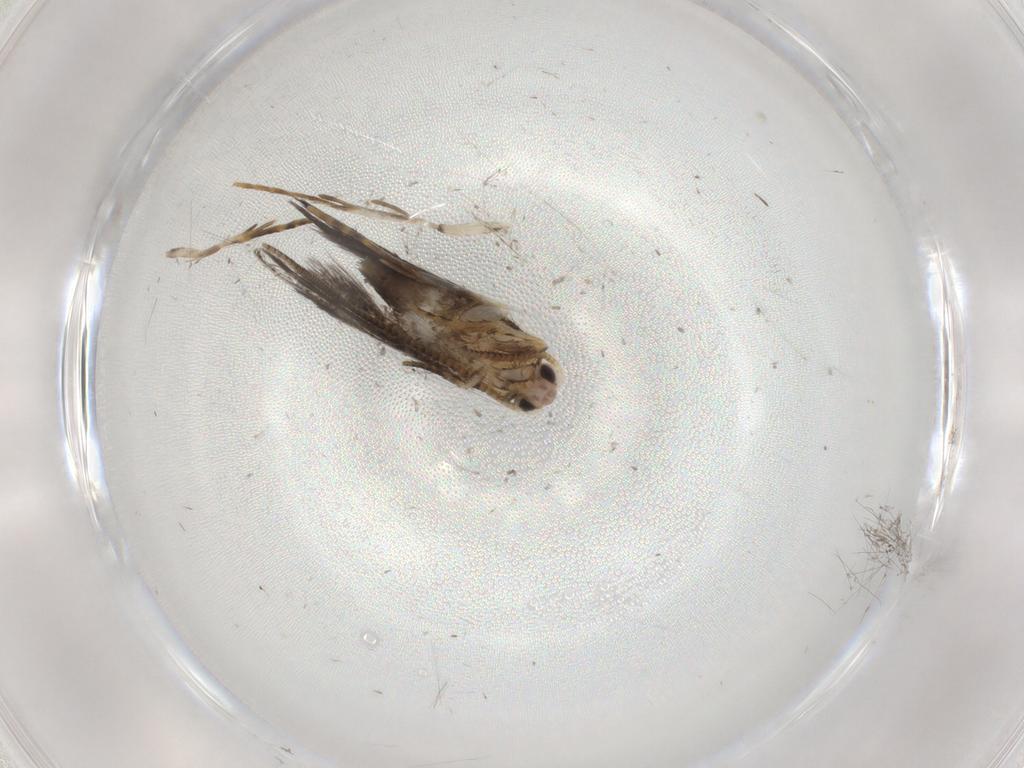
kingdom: Animalia
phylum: Arthropoda
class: Insecta
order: Lepidoptera
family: Tineidae
